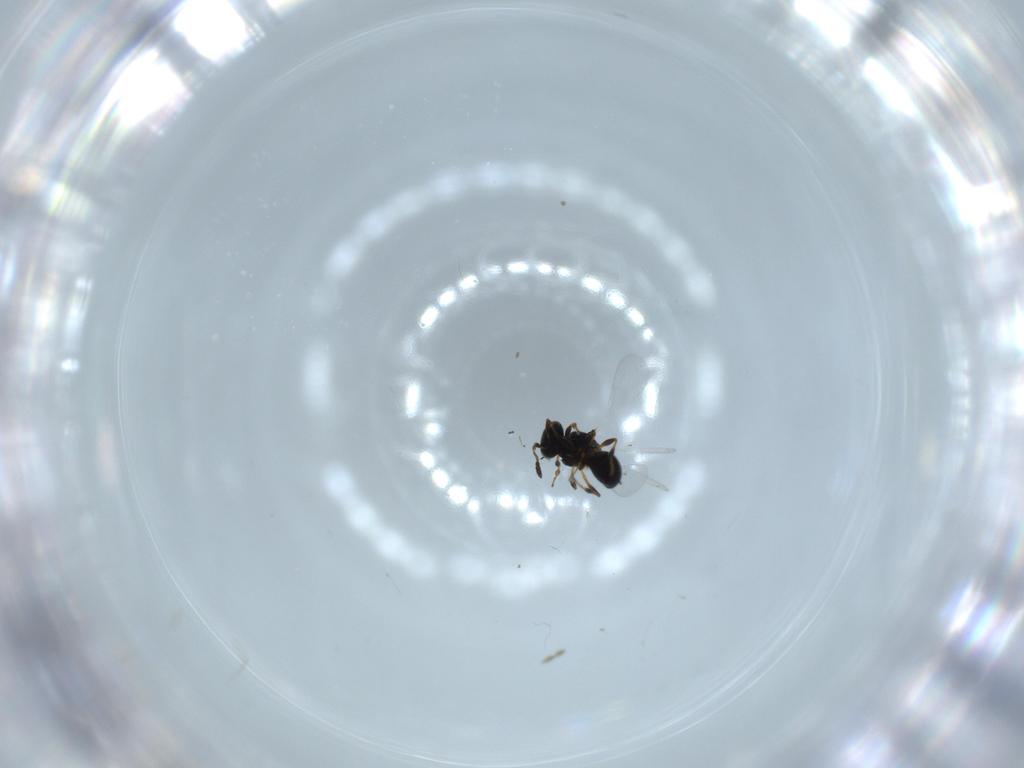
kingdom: Animalia
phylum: Arthropoda
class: Insecta
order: Hymenoptera
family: Platygastridae
